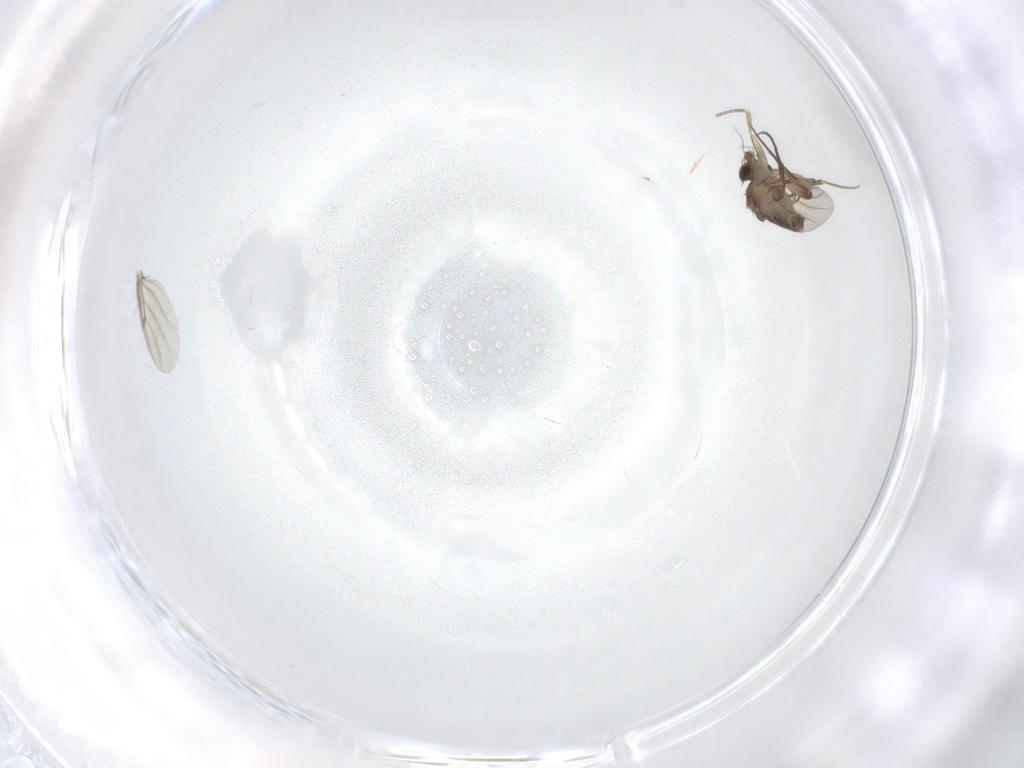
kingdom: Animalia
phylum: Arthropoda
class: Insecta
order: Diptera
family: Phoridae
